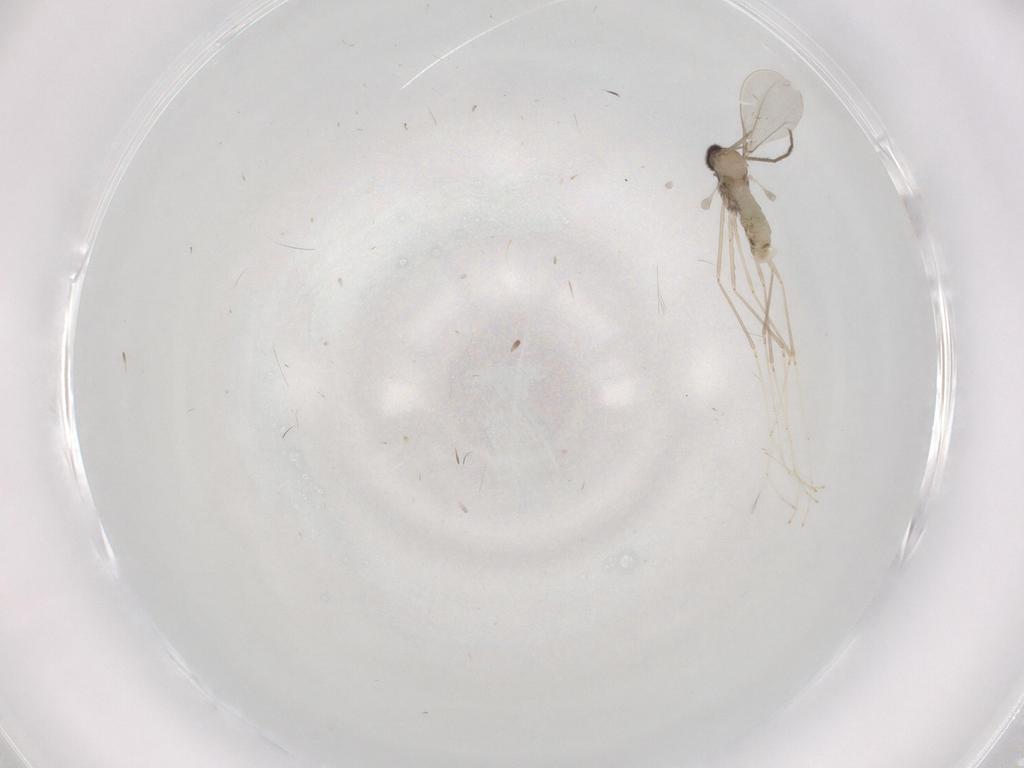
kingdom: Animalia
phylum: Arthropoda
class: Insecta
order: Diptera
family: Cecidomyiidae
